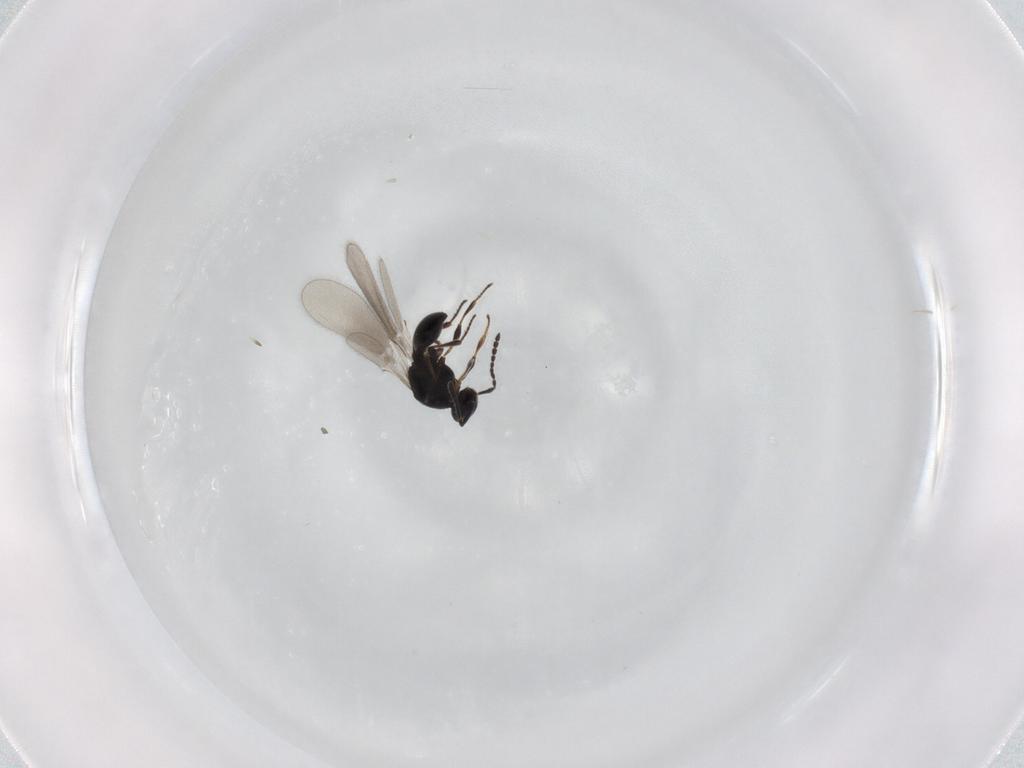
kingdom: Animalia
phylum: Arthropoda
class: Insecta
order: Hymenoptera
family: Platygastridae
